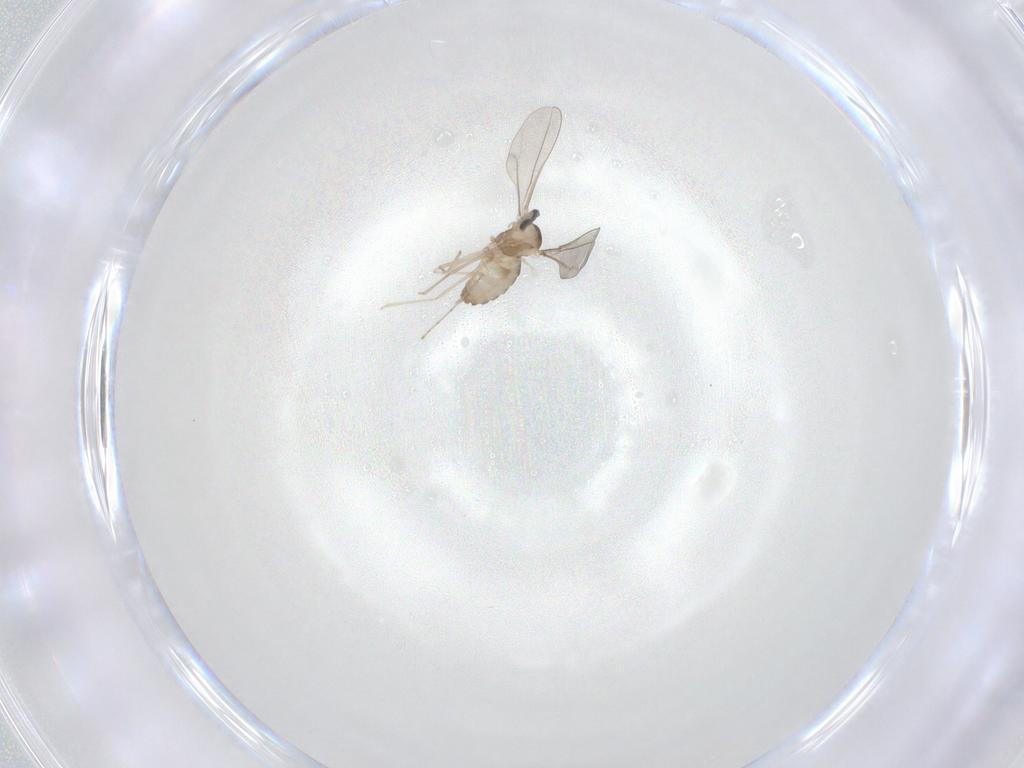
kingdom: Animalia
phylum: Arthropoda
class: Insecta
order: Diptera
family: Cecidomyiidae
